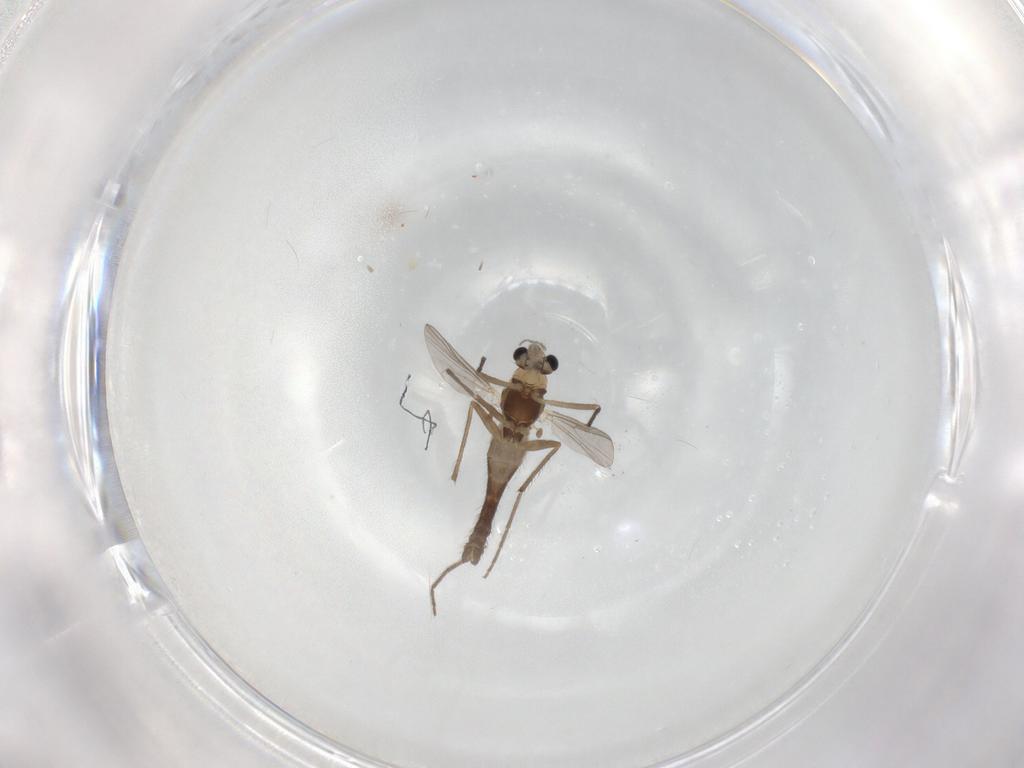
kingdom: Animalia
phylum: Arthropoda
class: Insecta
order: Diptera
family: Chironomidae
